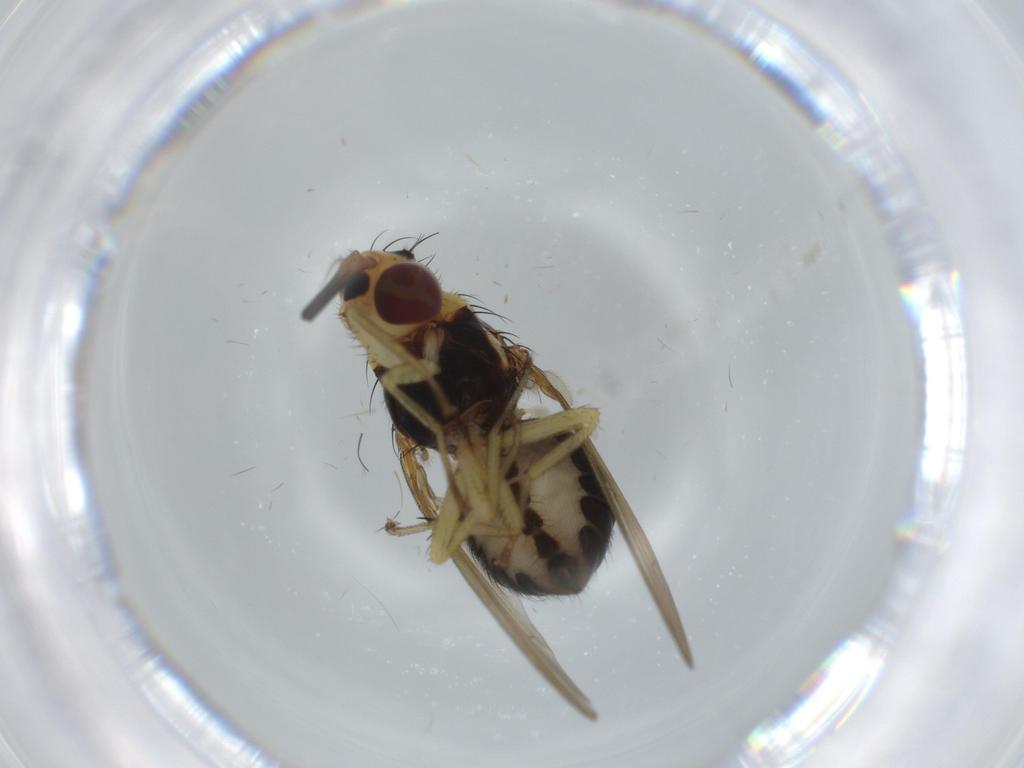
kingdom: Animalia
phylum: Arthropoda
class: Insecta
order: Diptera
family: Lauxaniidae
